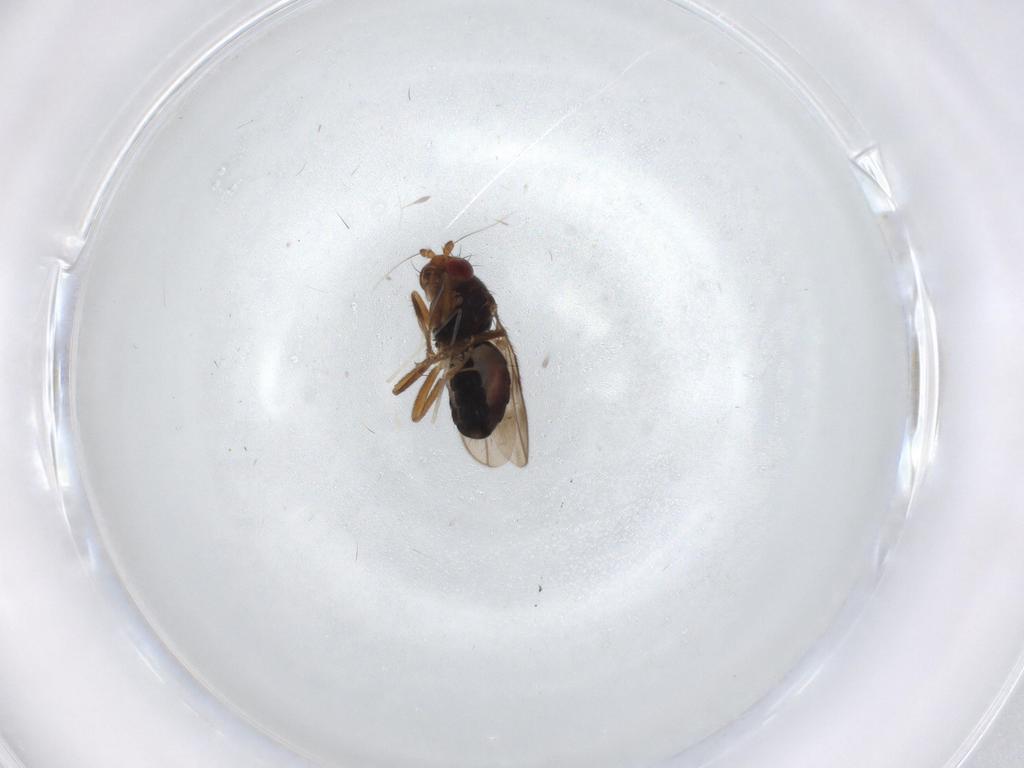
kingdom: Animalia
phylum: Arthropoda
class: Insecta
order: Diptera
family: Sphaeroceridae
